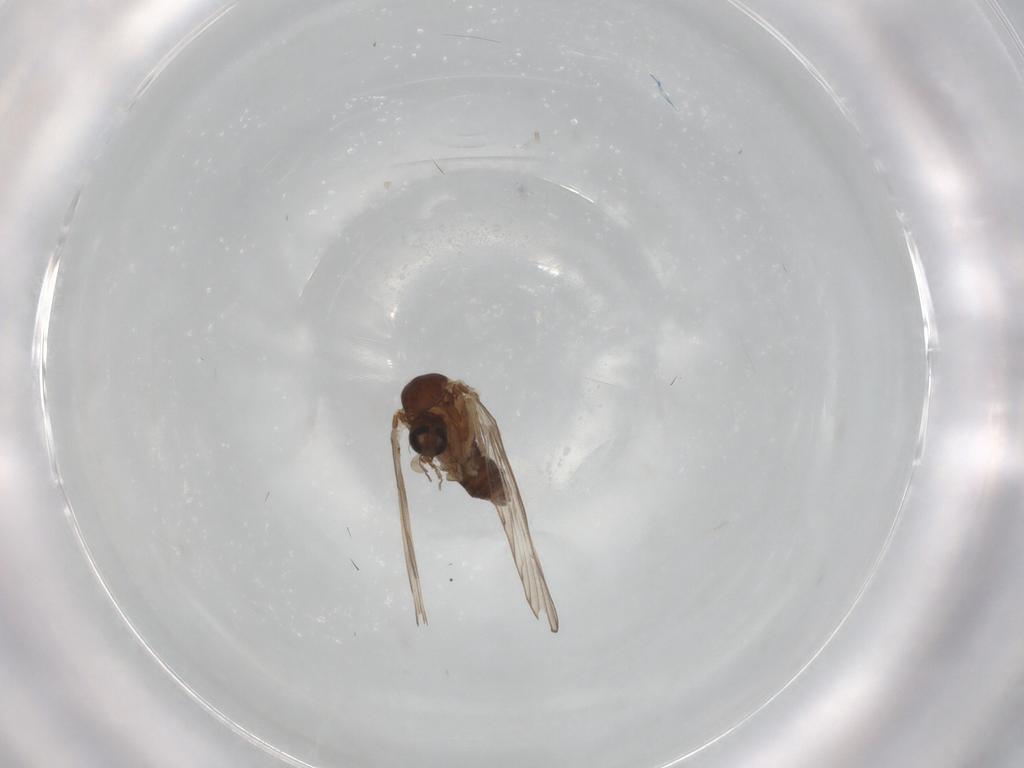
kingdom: Animalia
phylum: Arthropoda
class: Insecta
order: Diptera
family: Psychodidae
